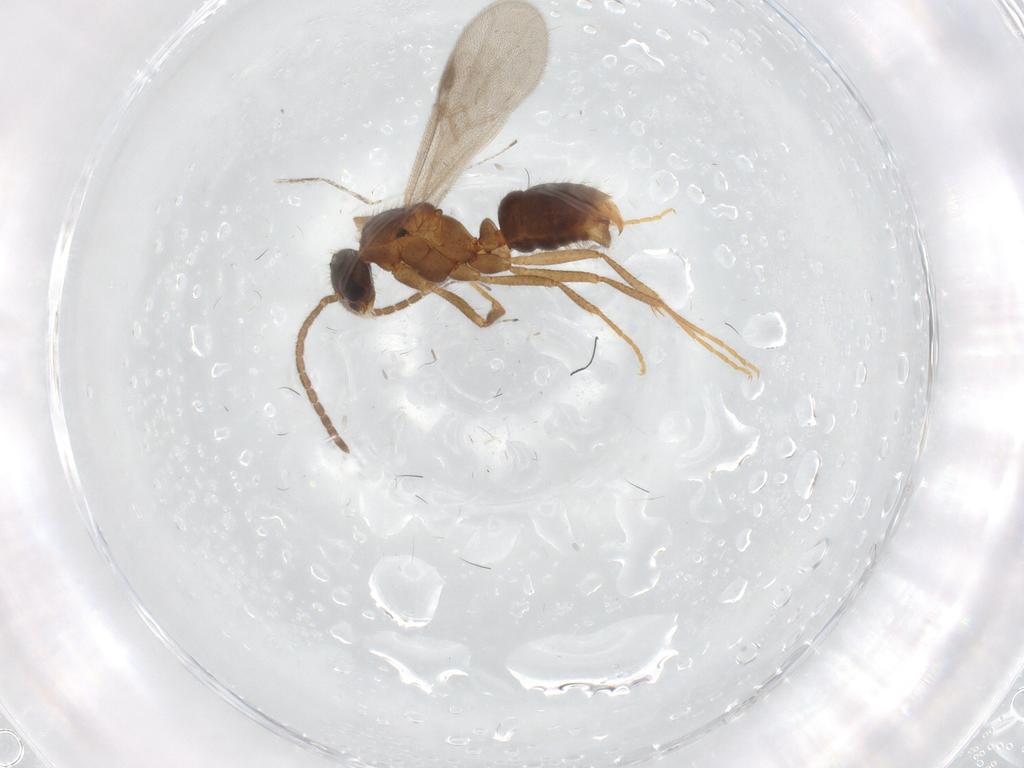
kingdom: Animalia
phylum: Arthropoda
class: Insecta
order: Hymenoptera
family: Formicidae
